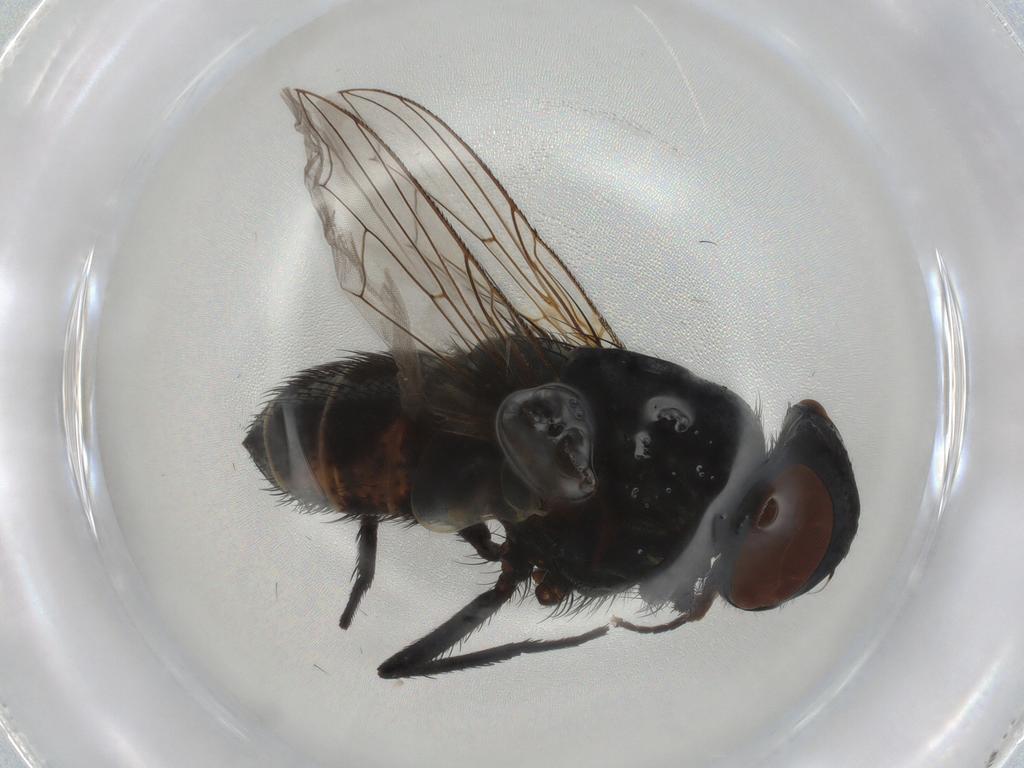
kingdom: Animalia
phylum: Arthropoda
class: Insecta
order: Diptera
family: Sarcophagidae
